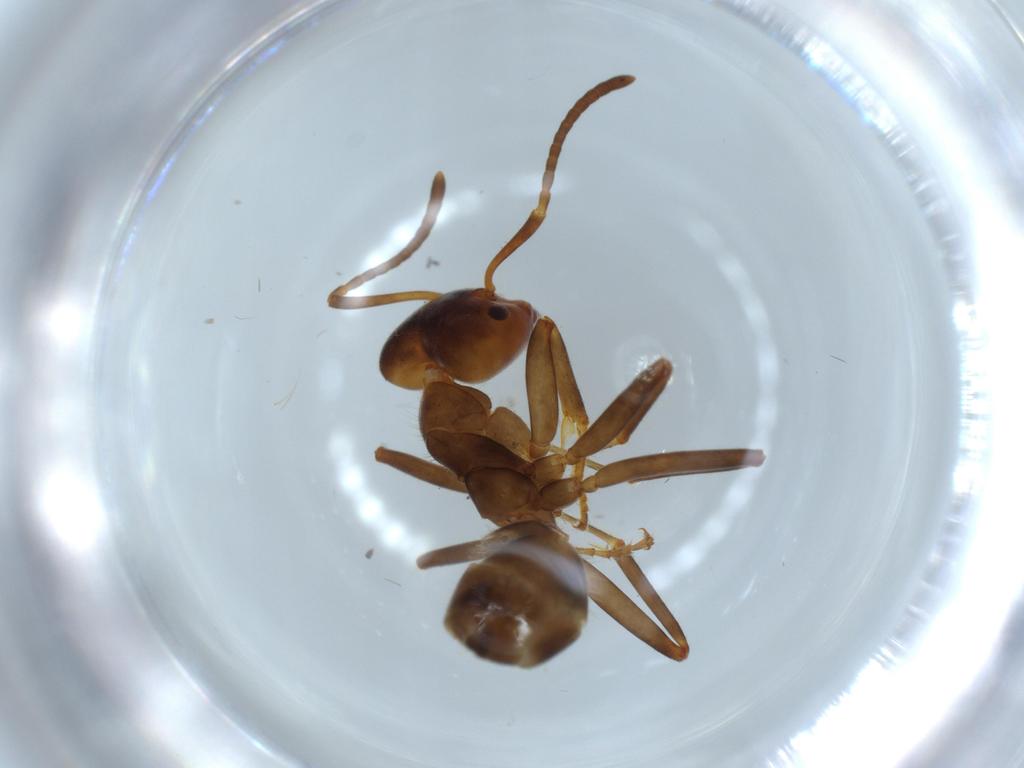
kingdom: Animalia
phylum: Arthropoda
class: Insecta
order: Hymenoptera
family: Formicidae
